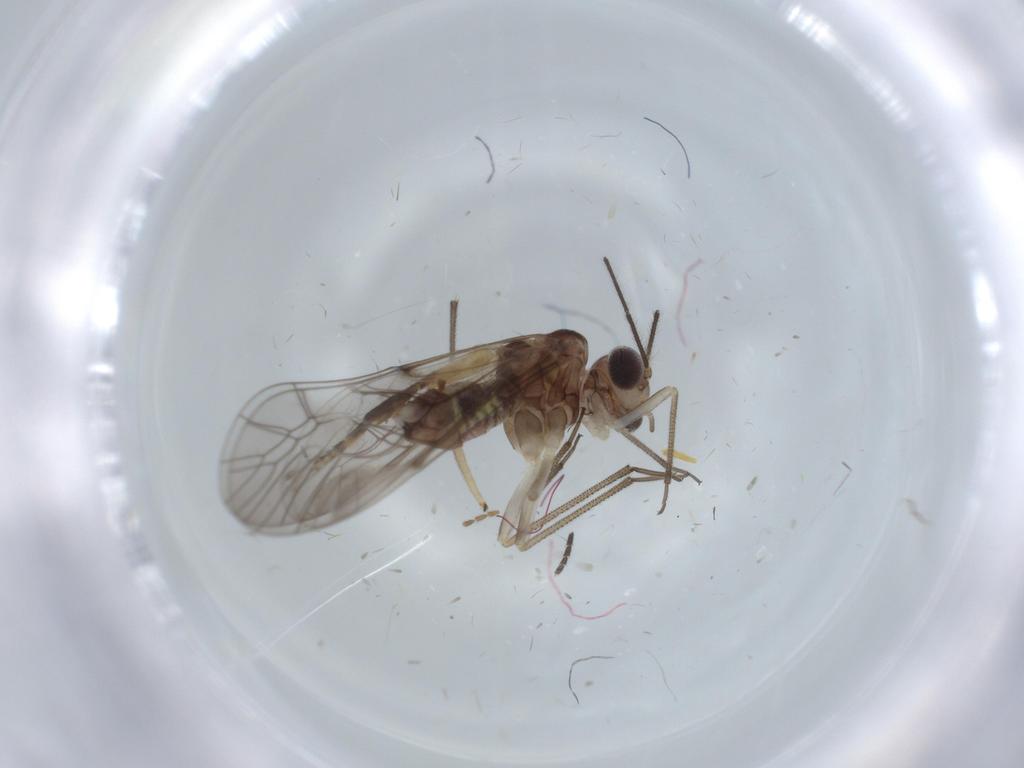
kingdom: Animalia
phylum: Arthropoda
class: Insecta
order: Psocodea
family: Psocidae
